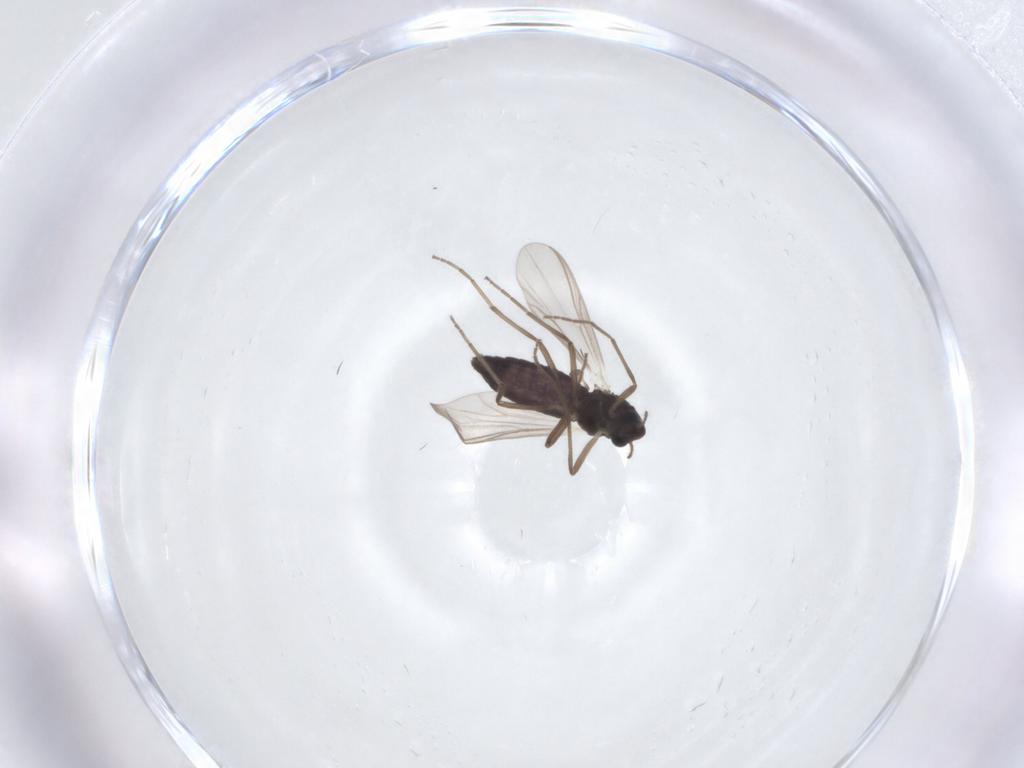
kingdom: Animalia
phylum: Arthropoda
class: Insecta
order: Diptera
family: Chironomidae
